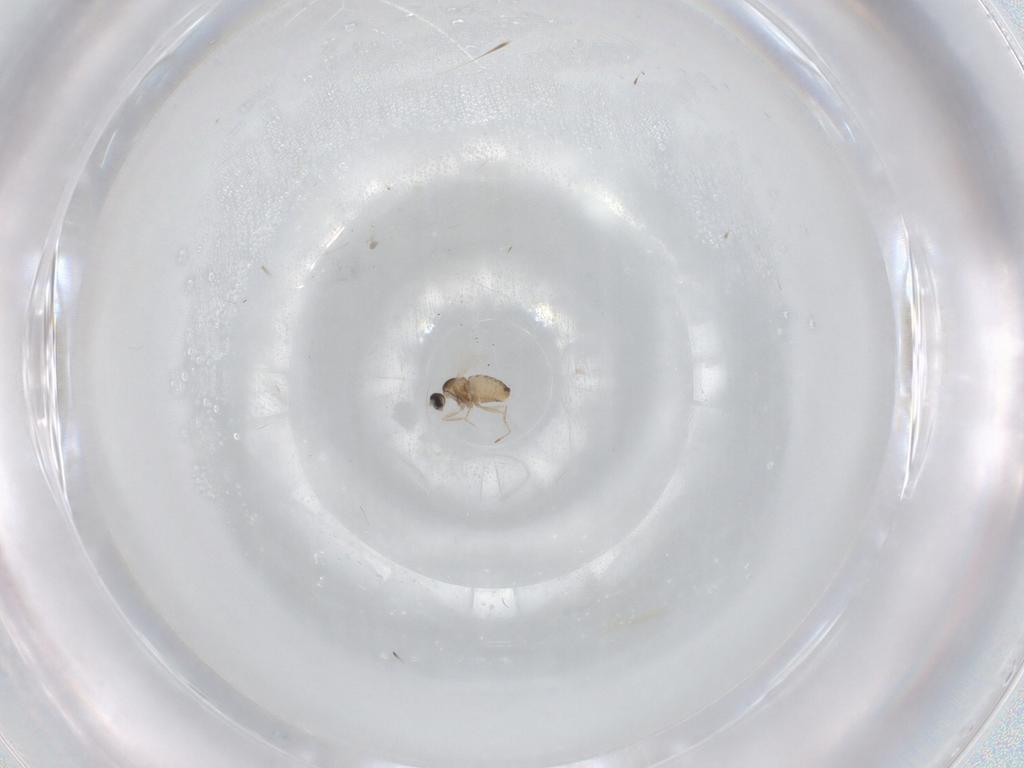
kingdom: Animalia
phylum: Arthropoda
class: Insecta
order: Diptera
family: Cecidomyiidae
